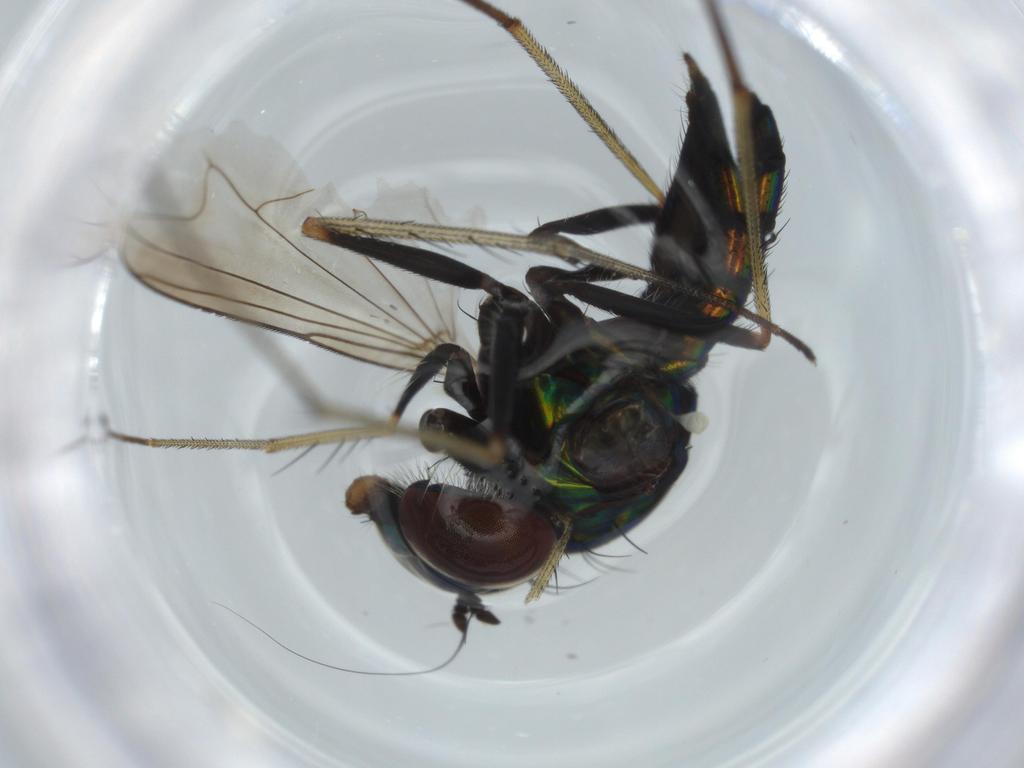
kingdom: Animalia
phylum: Arthropoda
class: Insecta
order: Diptera
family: Dolichopodidae
